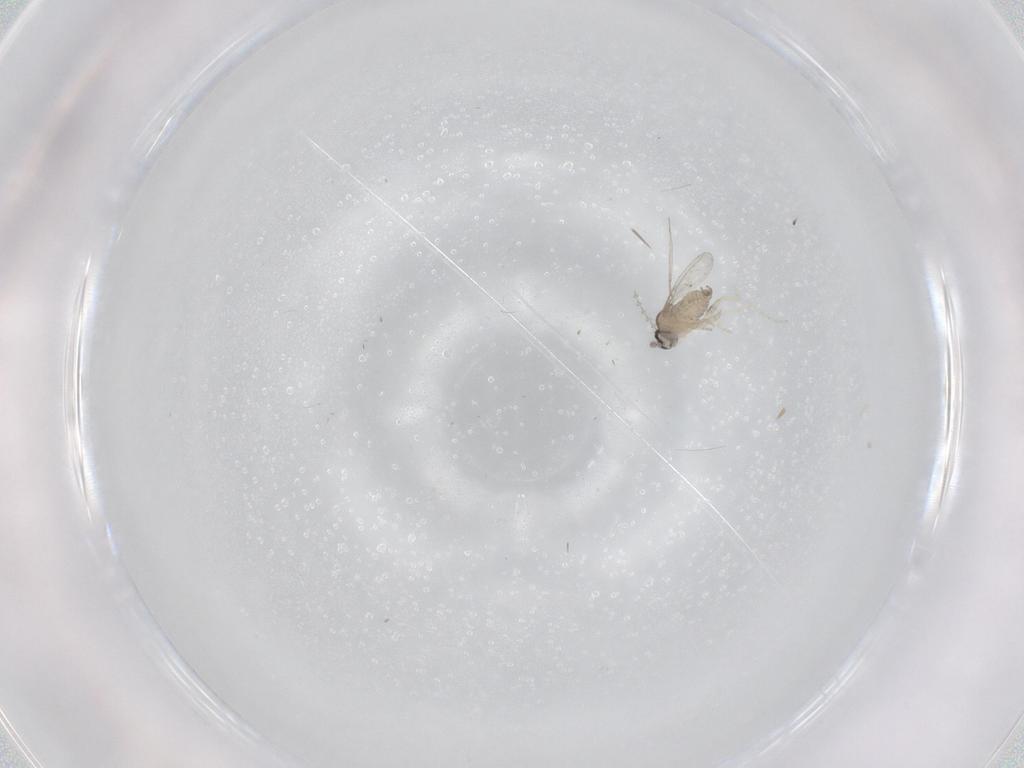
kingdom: Animalia
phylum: Arthropoda
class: Insecta
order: Diptera
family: Cecidomyiidae
